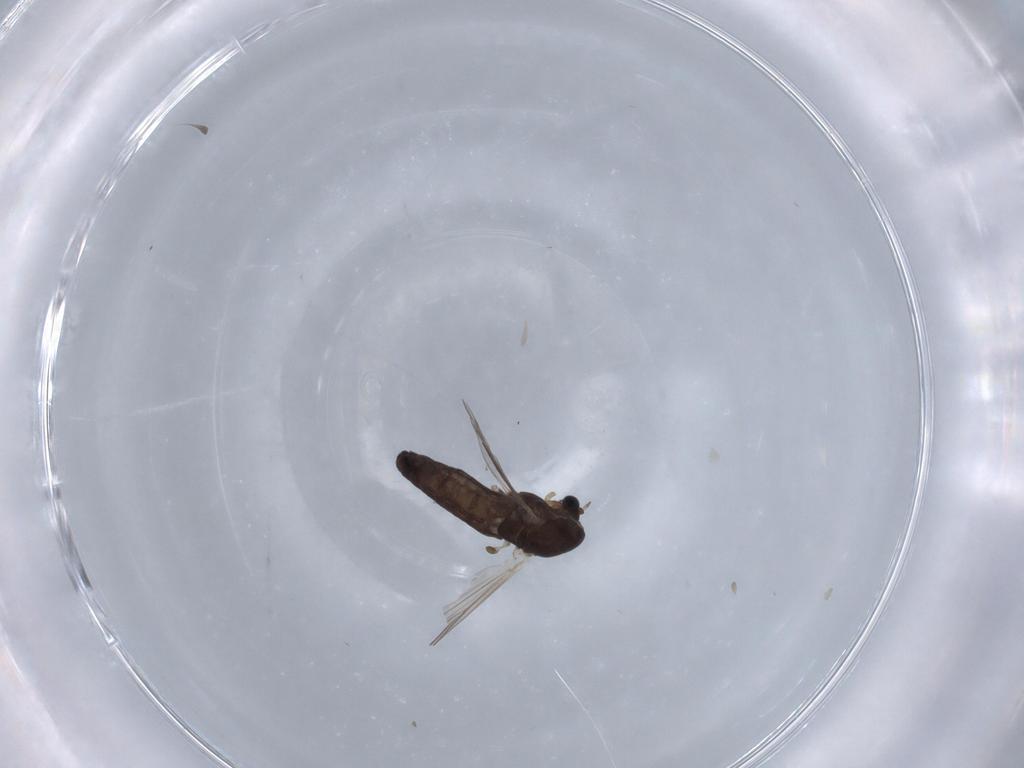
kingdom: Animalia
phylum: Arthropoda
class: Insecta
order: Diptera
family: Chironomidae
